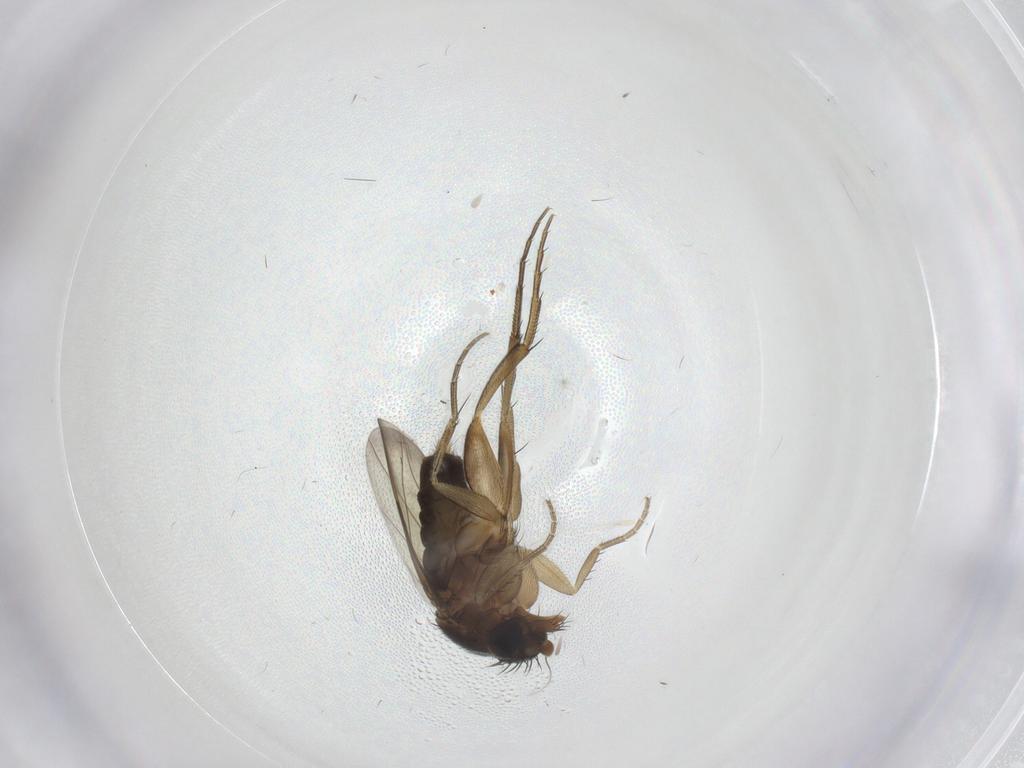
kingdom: Animalia
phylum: Arthropoda
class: Insecta
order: Diptera
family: Phoridae
